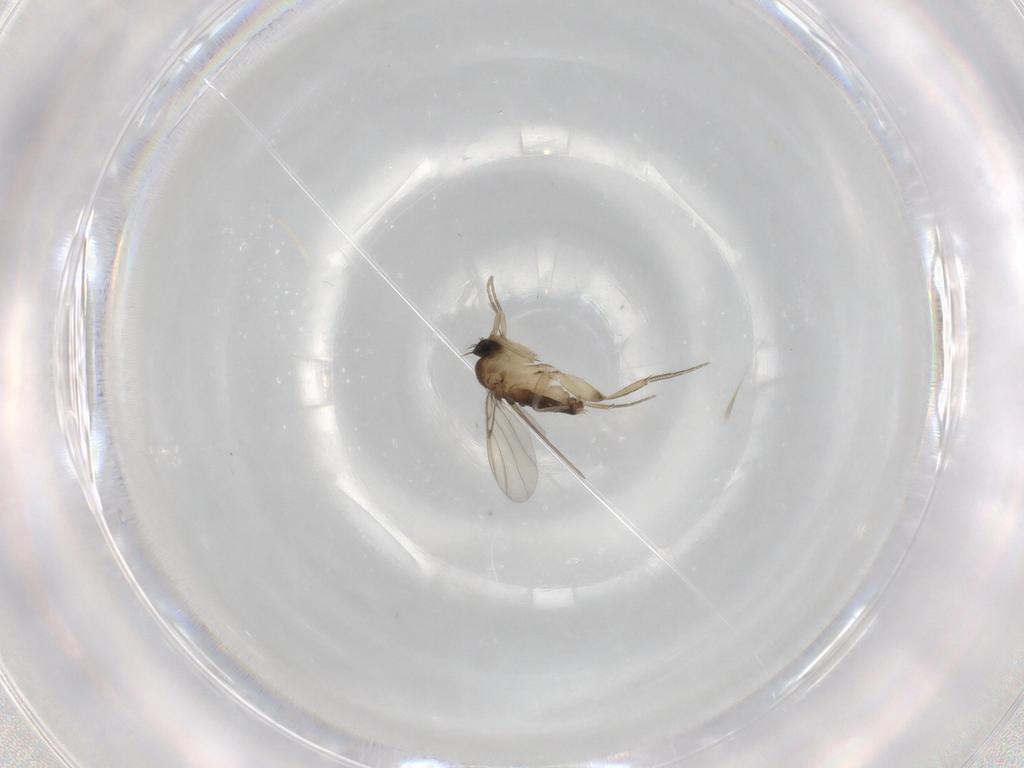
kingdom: Animalia
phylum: Arthropoda
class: Insecta
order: Diptera
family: Phoridae
